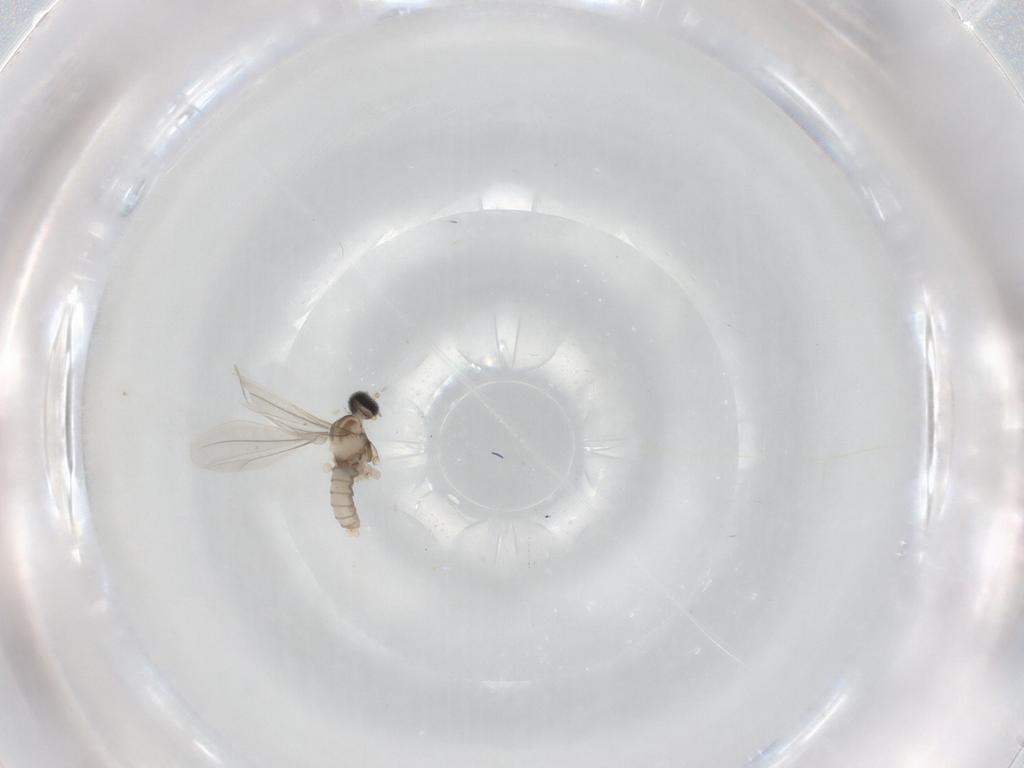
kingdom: Animalia
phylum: Arthropoda
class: Insecta
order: Diptera
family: Cecidomyiidae
